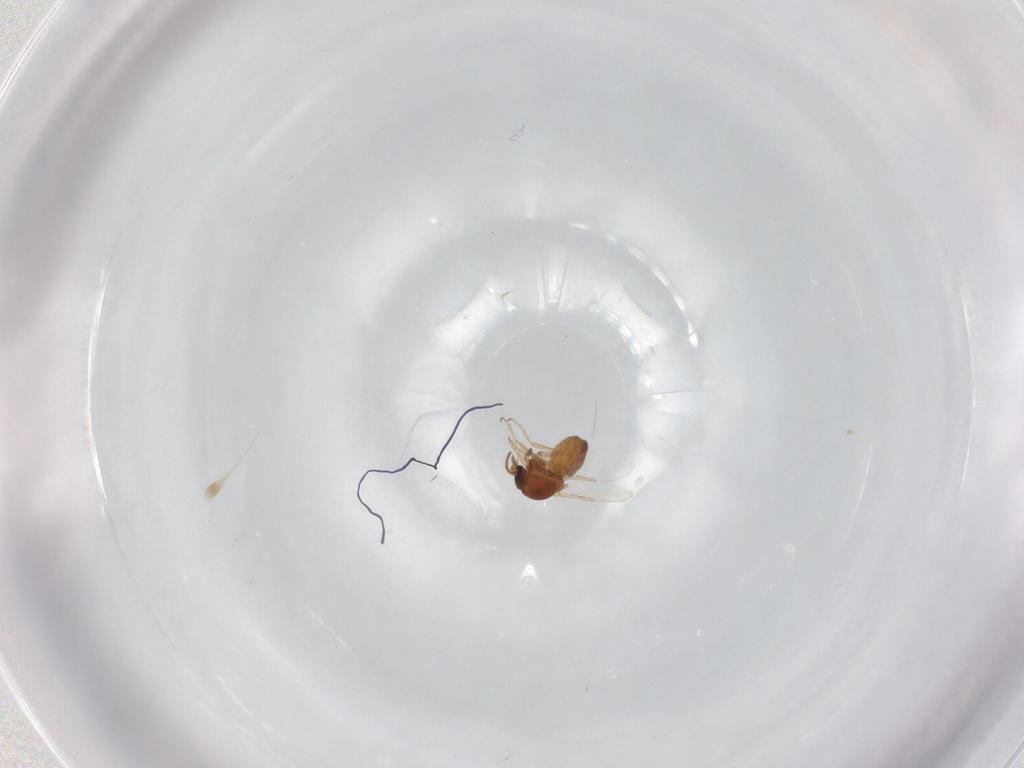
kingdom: Animalia
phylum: Arthropoda
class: Insecta
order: Diptera
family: Ceratopogonidae
